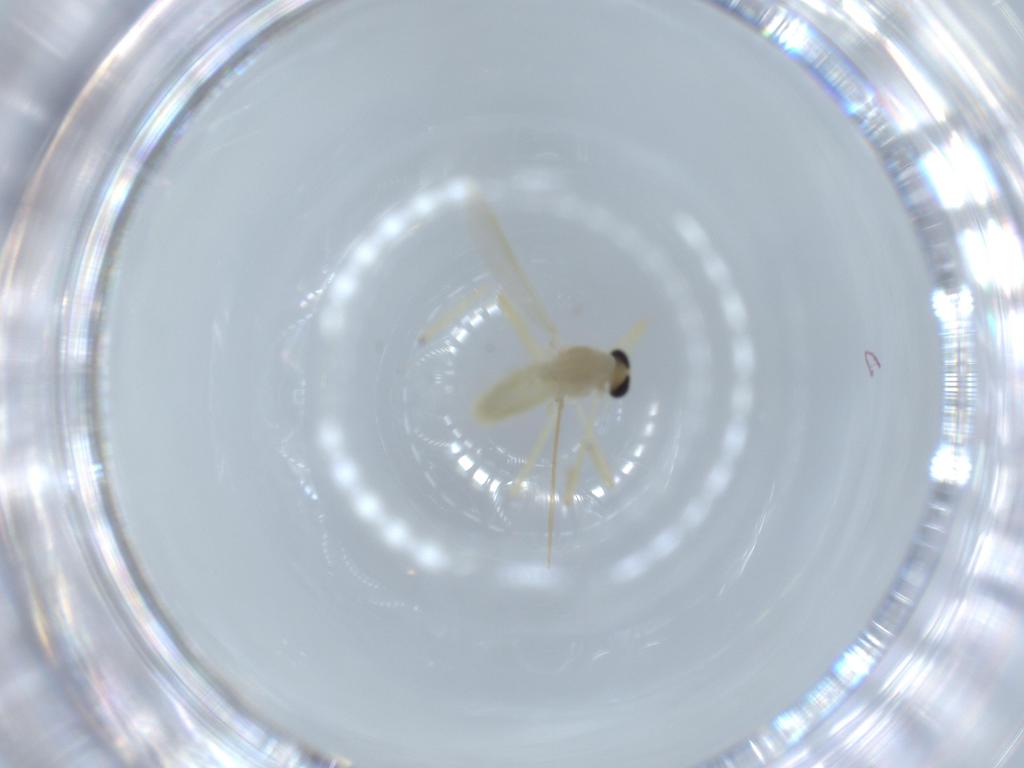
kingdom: Animalia
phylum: Arthropoda
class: Insecta
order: Diptera
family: Chironomidae
